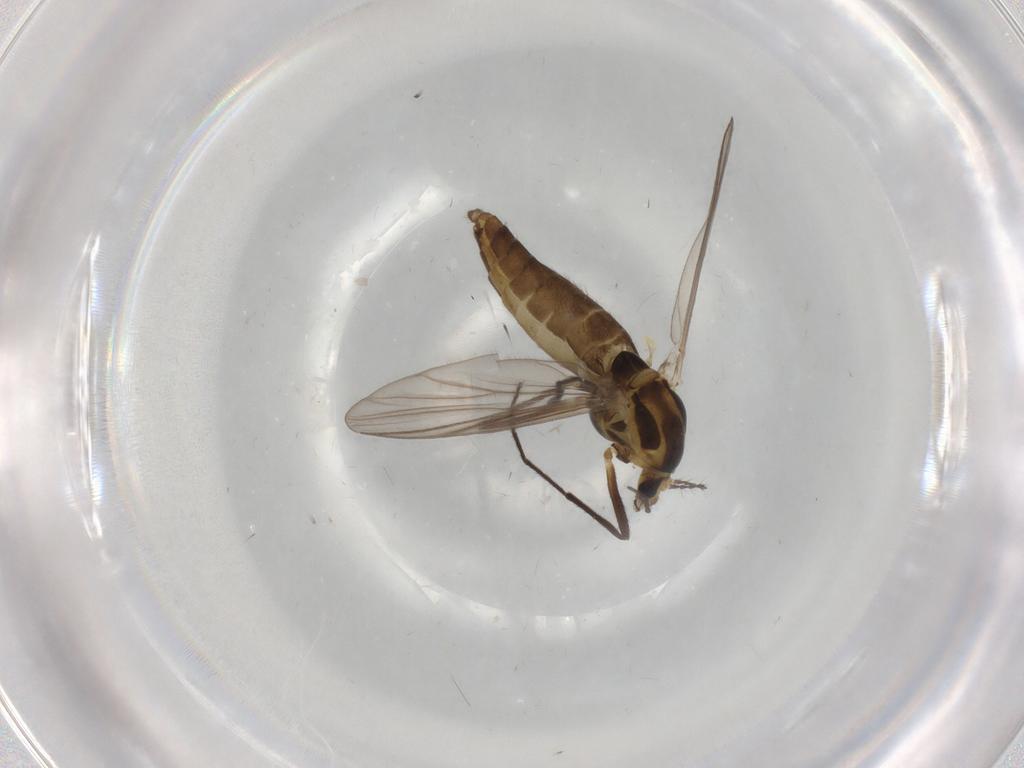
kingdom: Animalia
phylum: Arthropoda
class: Insecta
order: Diptera
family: Chironomidae
